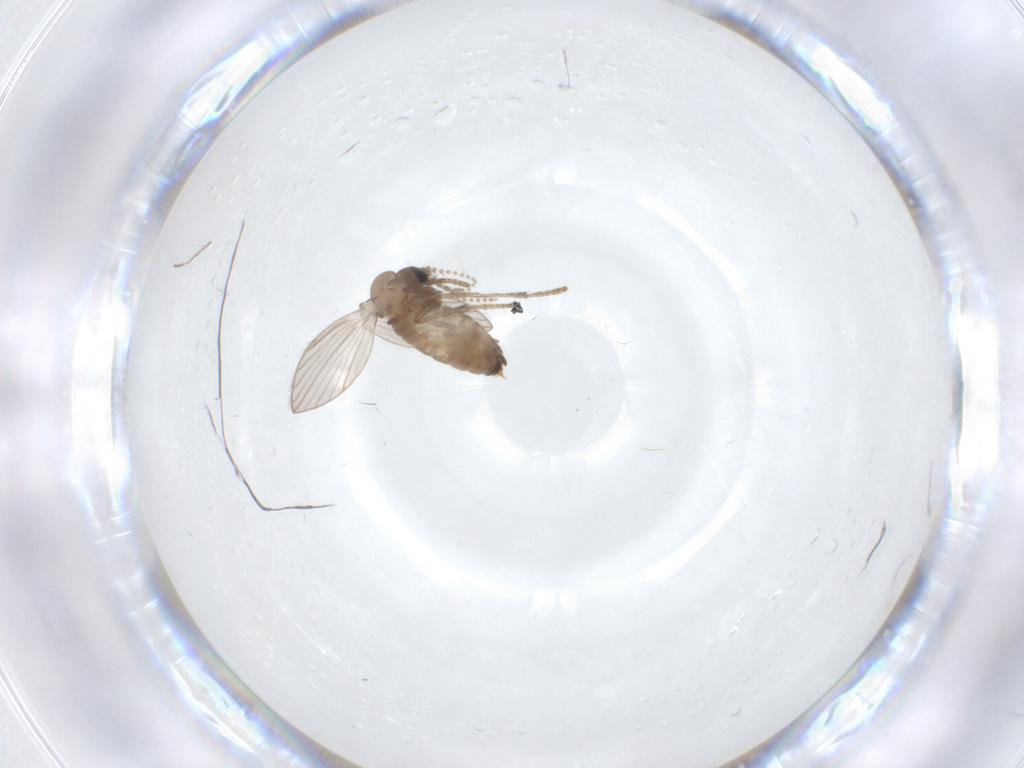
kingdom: Animalia
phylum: Arthropoda
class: Insecta
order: Diptera
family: Psychodidae
